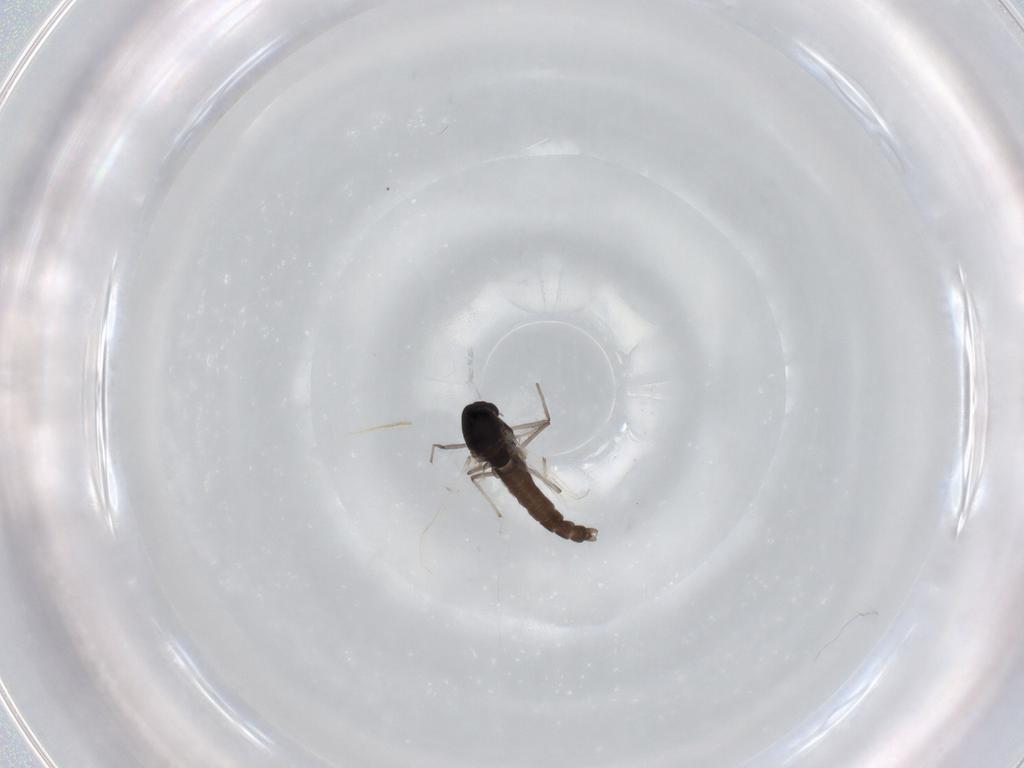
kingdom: Animalia
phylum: Arthropoda
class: Insecta
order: Diptera
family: Chironomidae
